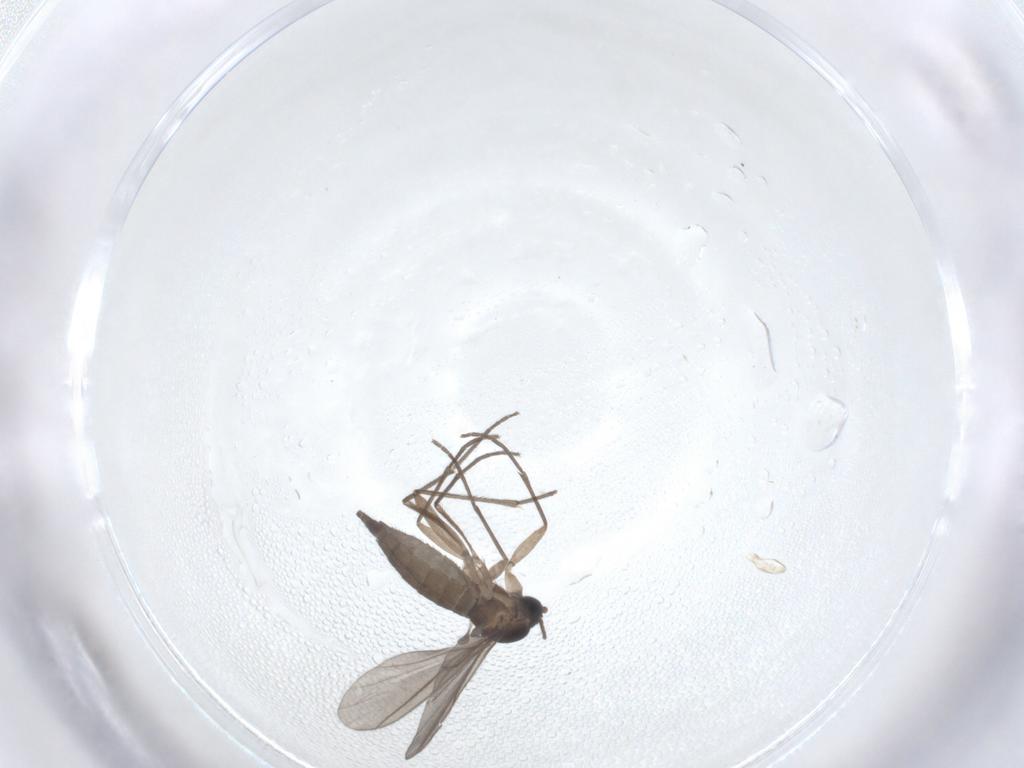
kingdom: Animalia
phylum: Arthropoda
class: Insecta
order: Diptera
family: Sciaridae
